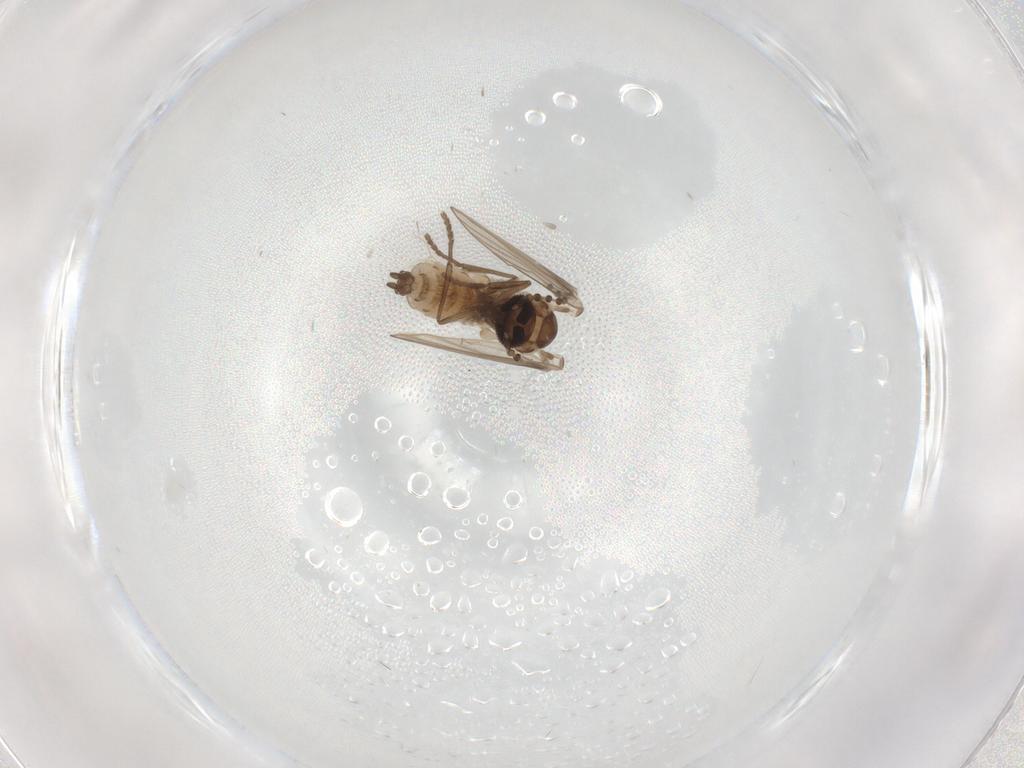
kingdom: Animalia
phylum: Arthropoda
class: Insecta
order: Diptera
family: Psychodidae
